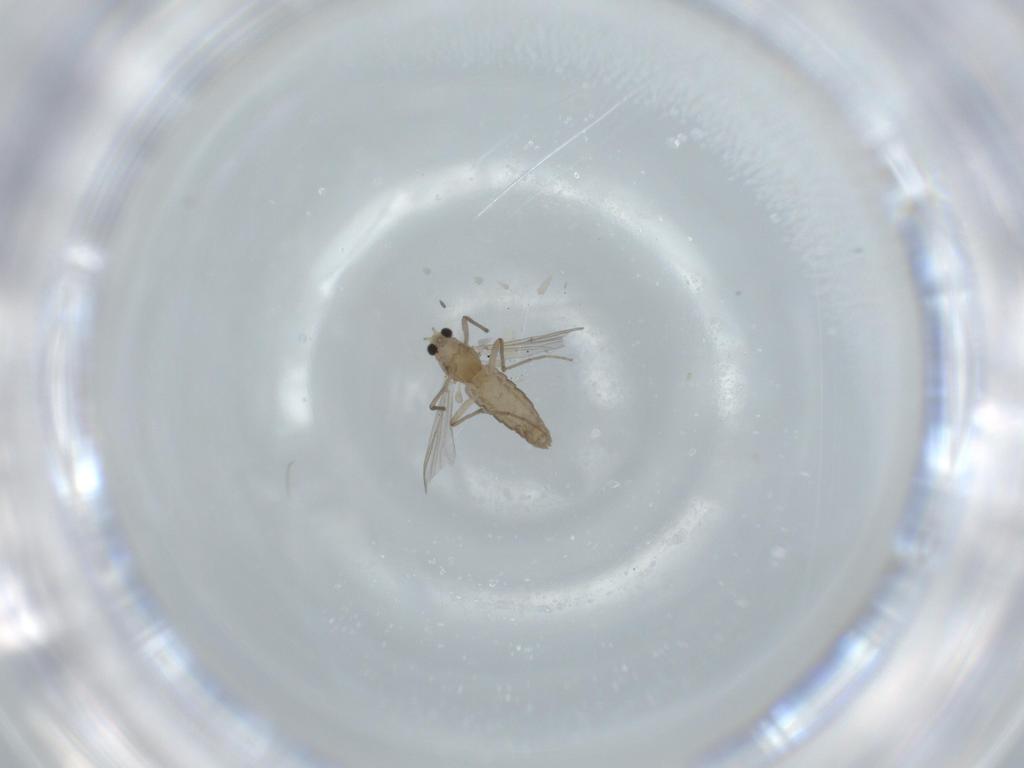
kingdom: Animalia
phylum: Arthropoda
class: Insecta
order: Diptera
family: Chironomidae
